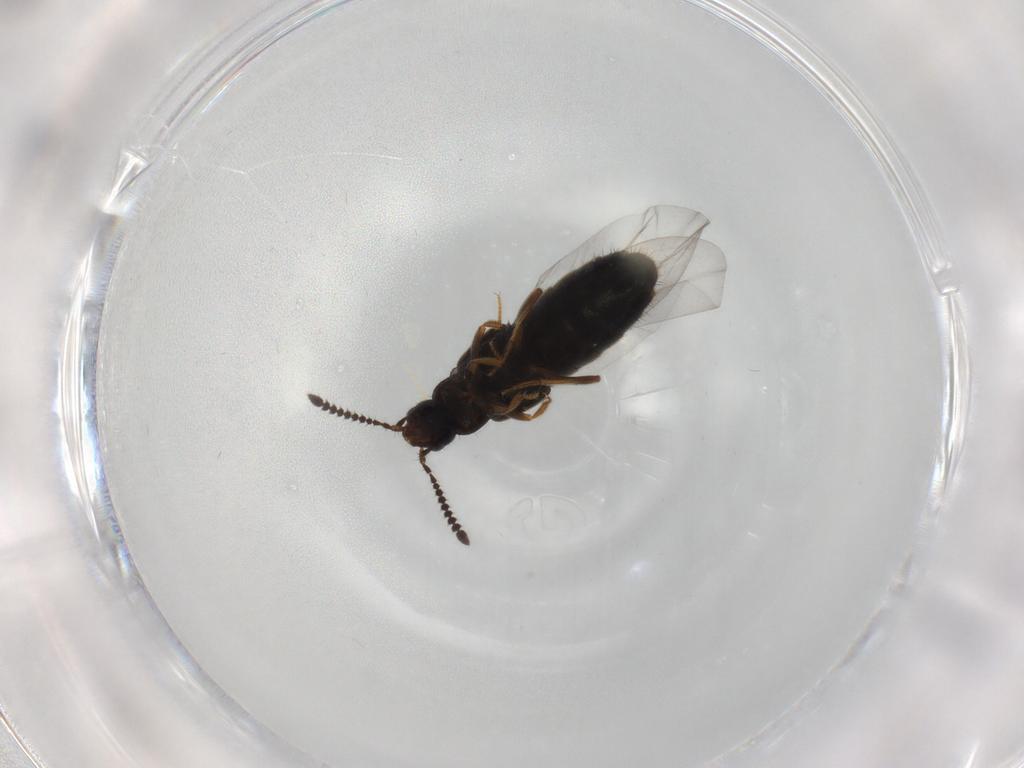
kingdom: Animalia
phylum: Arthropoda
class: Insecta
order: Coleoptera
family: Staphylinidae
